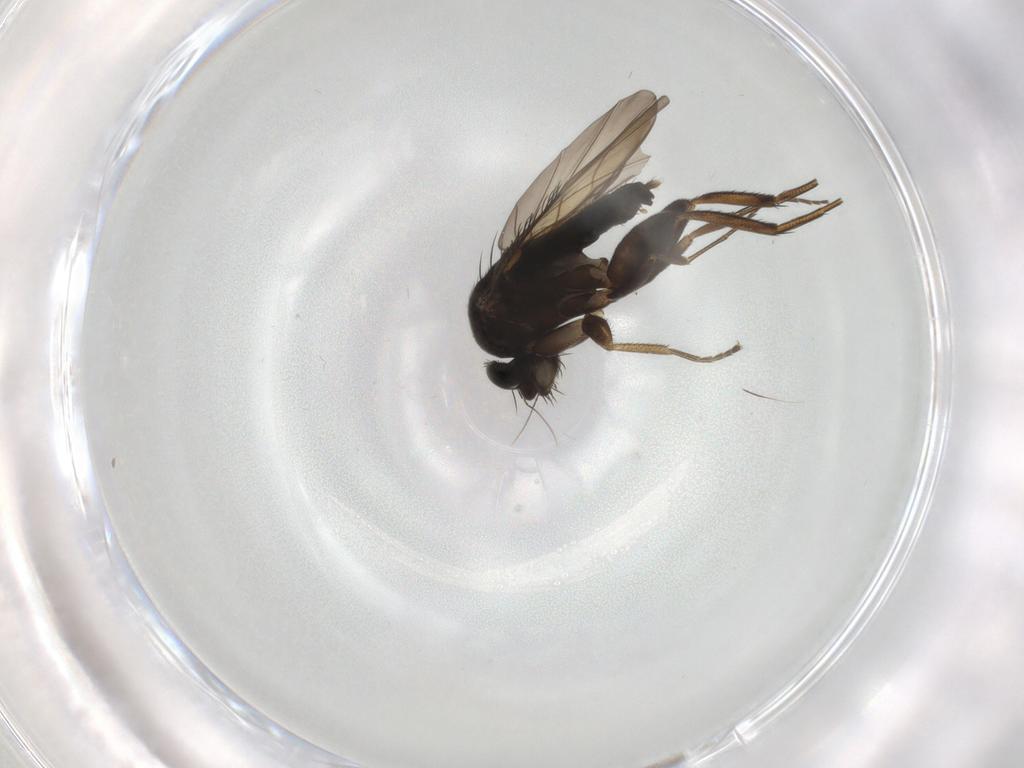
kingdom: Animalia
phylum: Arthropoda
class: Insecta
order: Diptera
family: Phoridae
